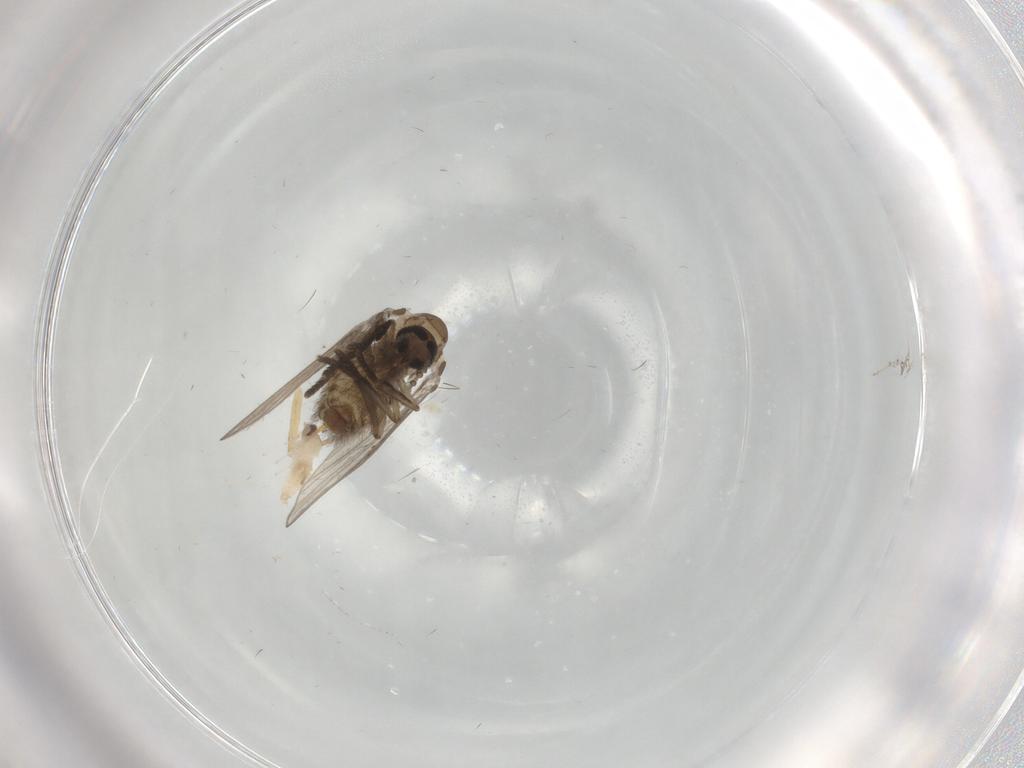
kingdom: Animalia
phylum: Arthropoda
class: Insecta
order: Diptera
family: Cecidomyiidae
